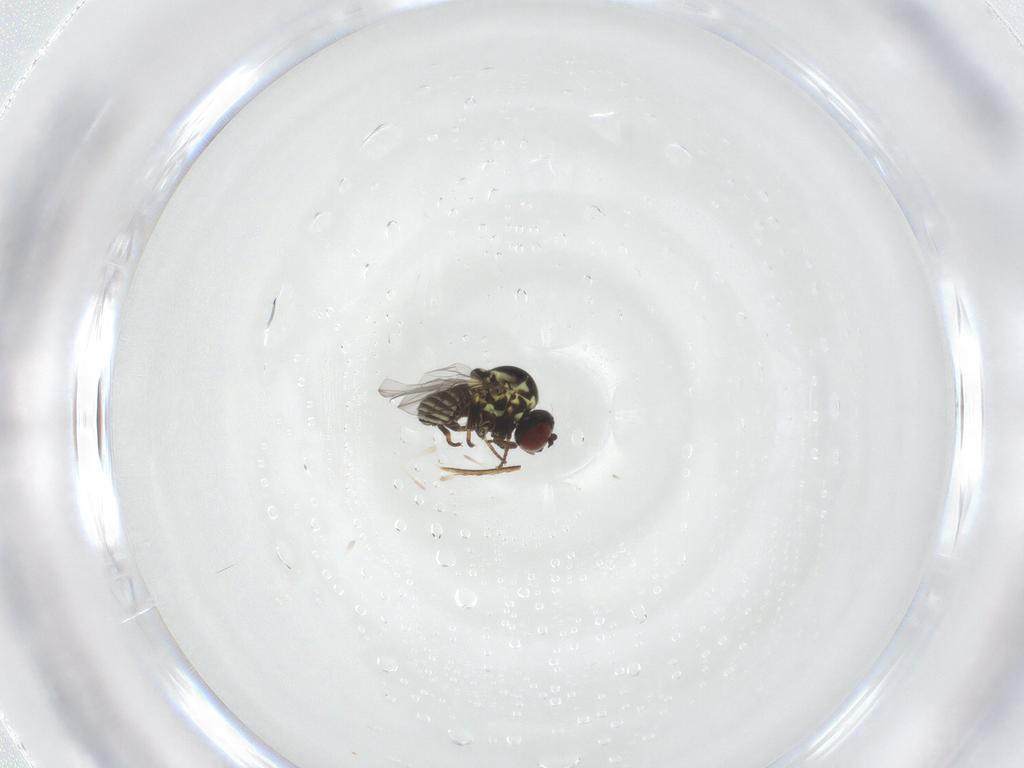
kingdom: Animalia
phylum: Arthropoda
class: Insecta
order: Diptera
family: Mythicomyiidae
